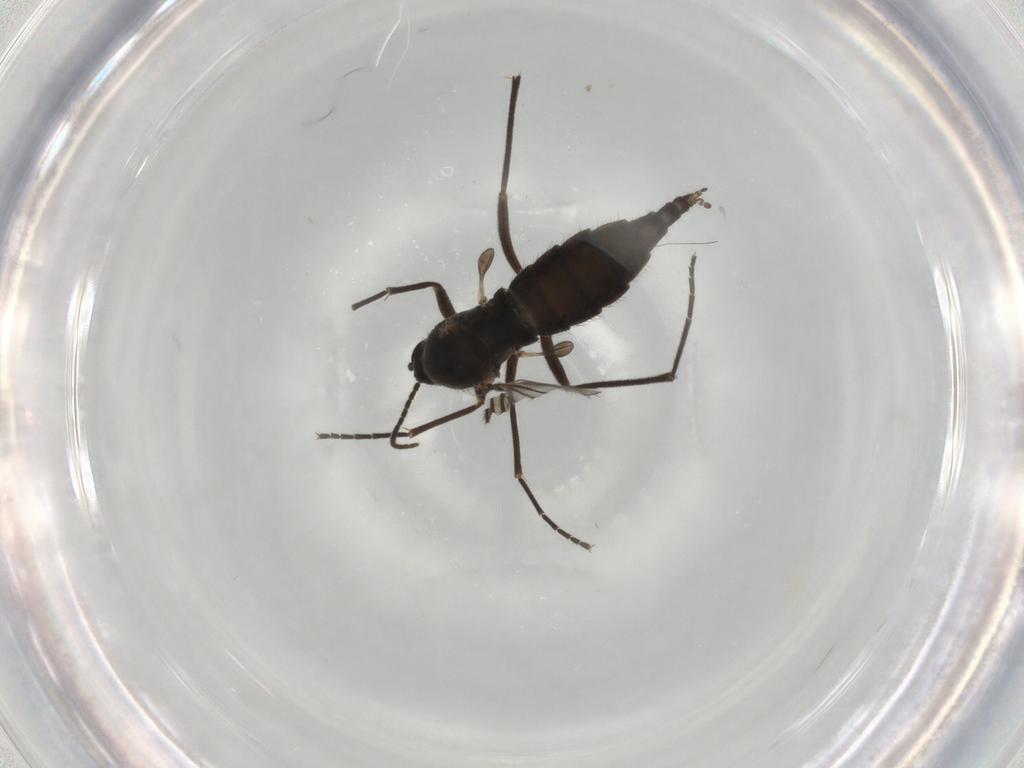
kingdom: Animalia
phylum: Arthropoda
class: Insecta
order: Diptera
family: Sciaridae
